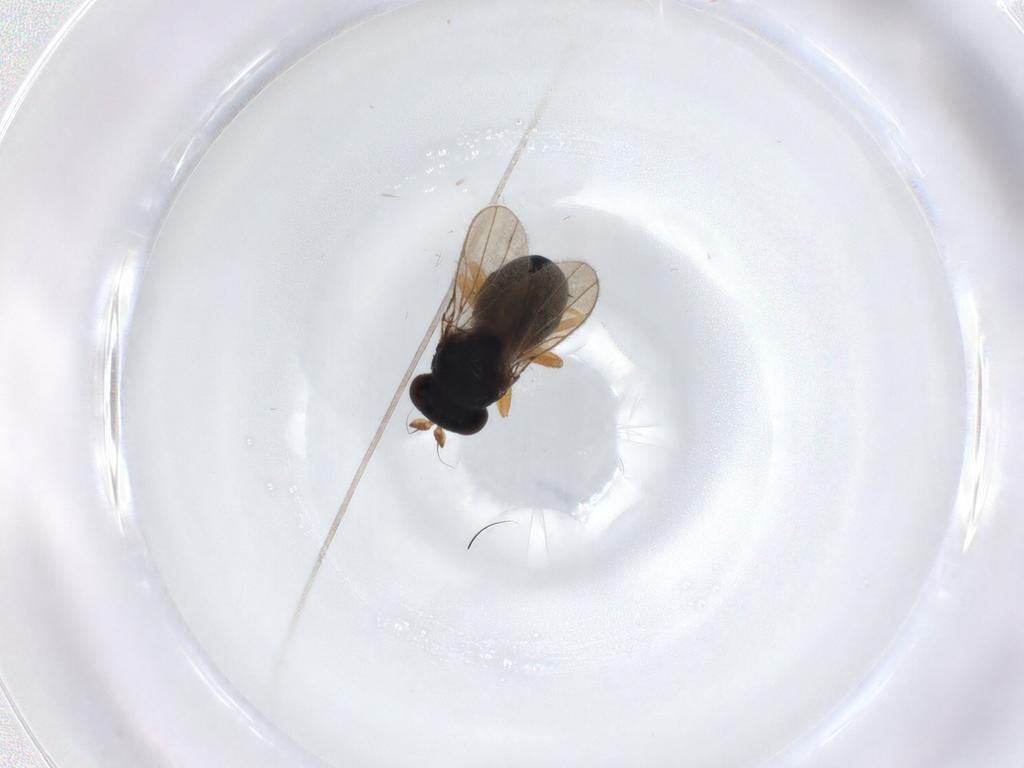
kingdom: Animalia
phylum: Arthropoda
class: Insecta
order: Diptera
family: Ephydridae
